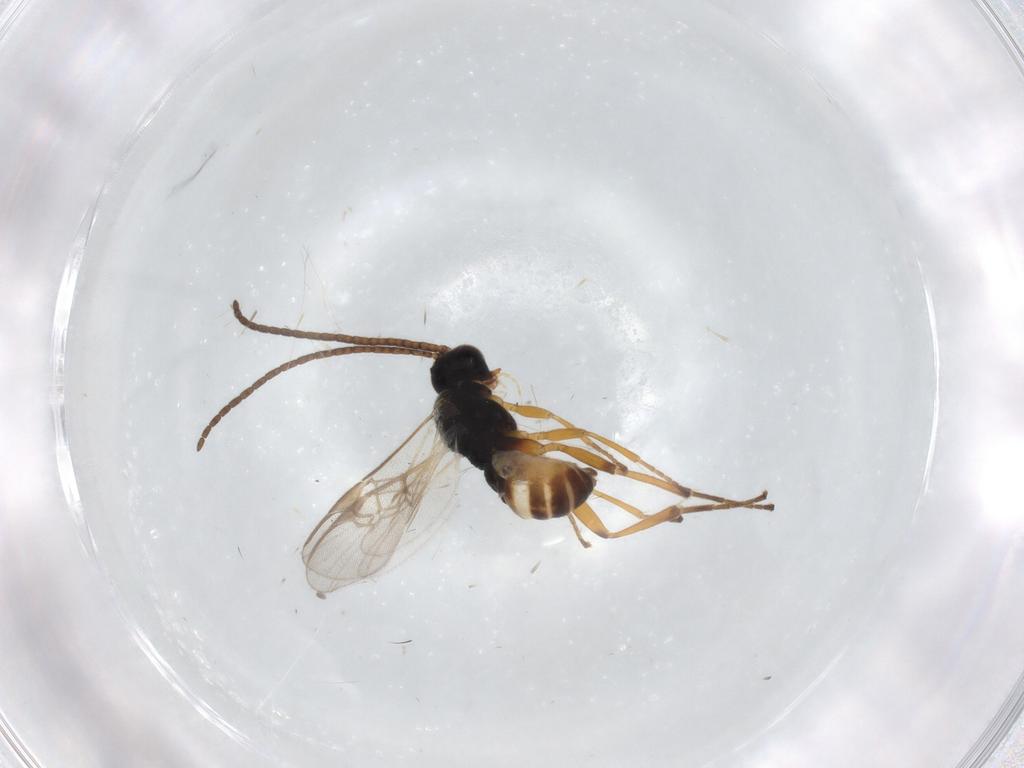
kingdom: Animalia
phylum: Arthropoda
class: Insecta
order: Hymenoptera
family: Braconidae
